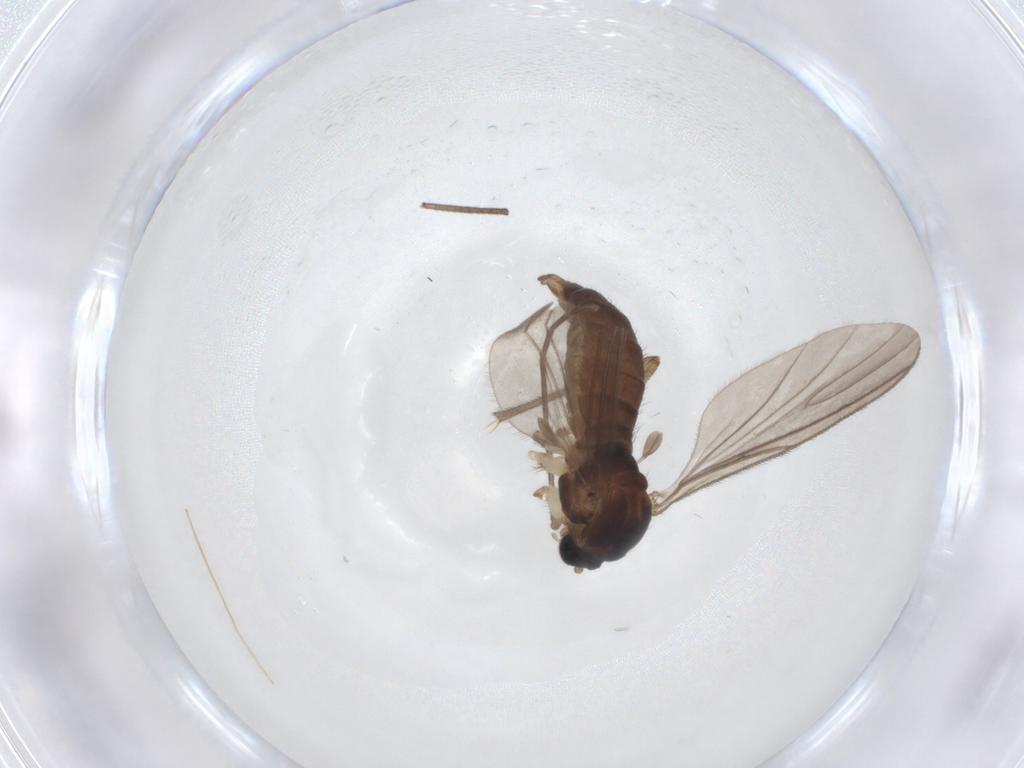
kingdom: Animalia
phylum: Arthropoda
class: Insecta
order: Diptera
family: Sciaridae
